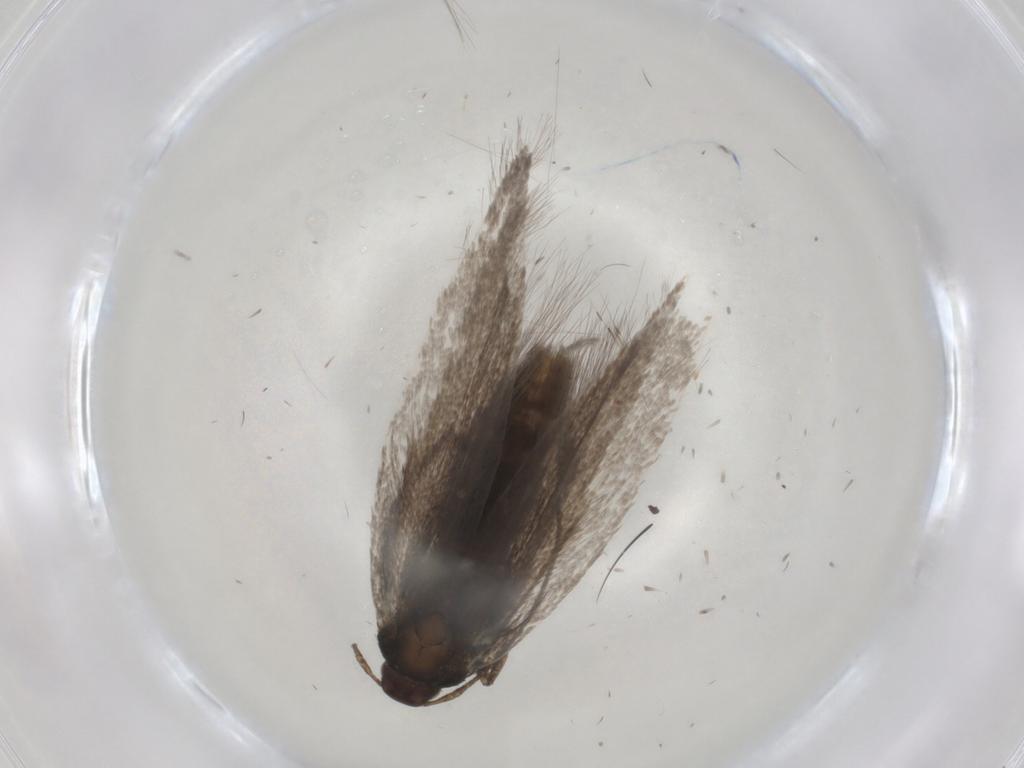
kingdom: Animalia
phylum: Arthropoda
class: Insecta
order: Lepidoptera
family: Gelechiidae
